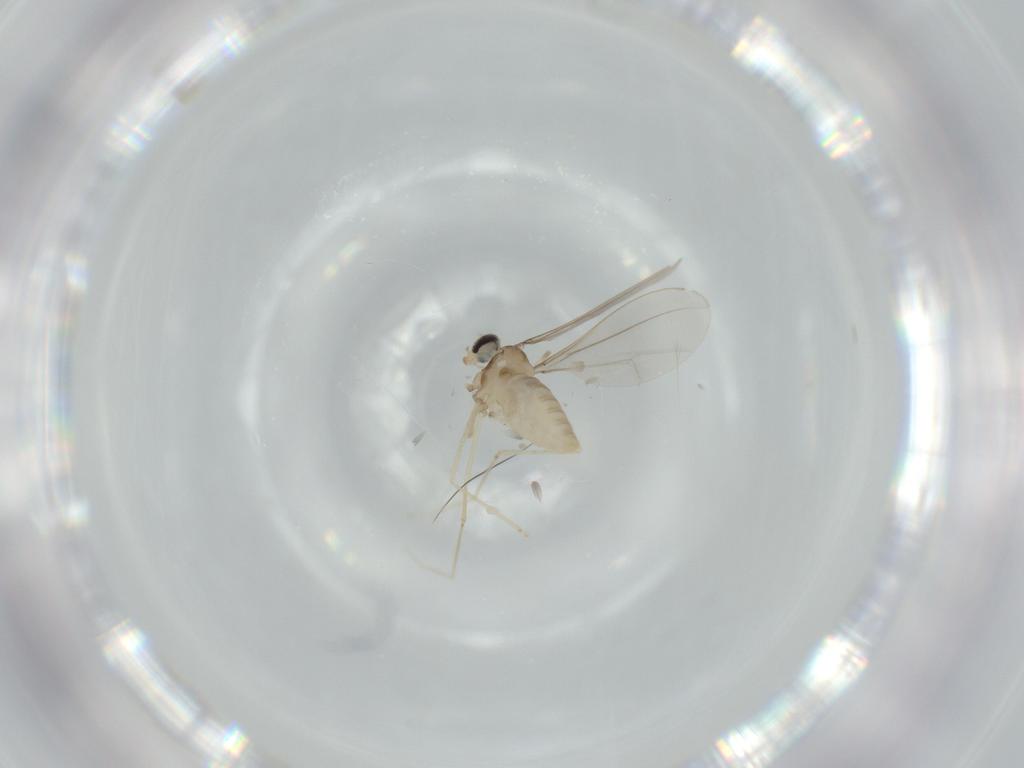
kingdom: Animalia
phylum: Arthropoda
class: Insecta
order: Diptera
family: Cecidomyiidae
